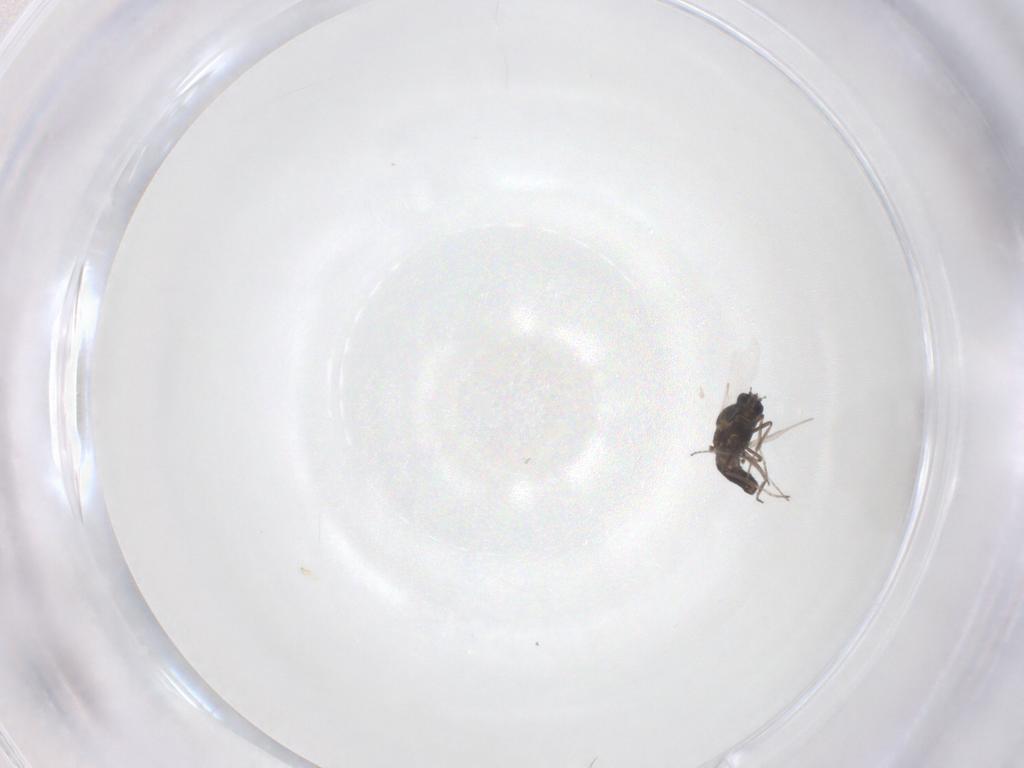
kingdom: Animalia
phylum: Arthropoda
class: Insecta
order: Diptera
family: Ceratopogonidae
